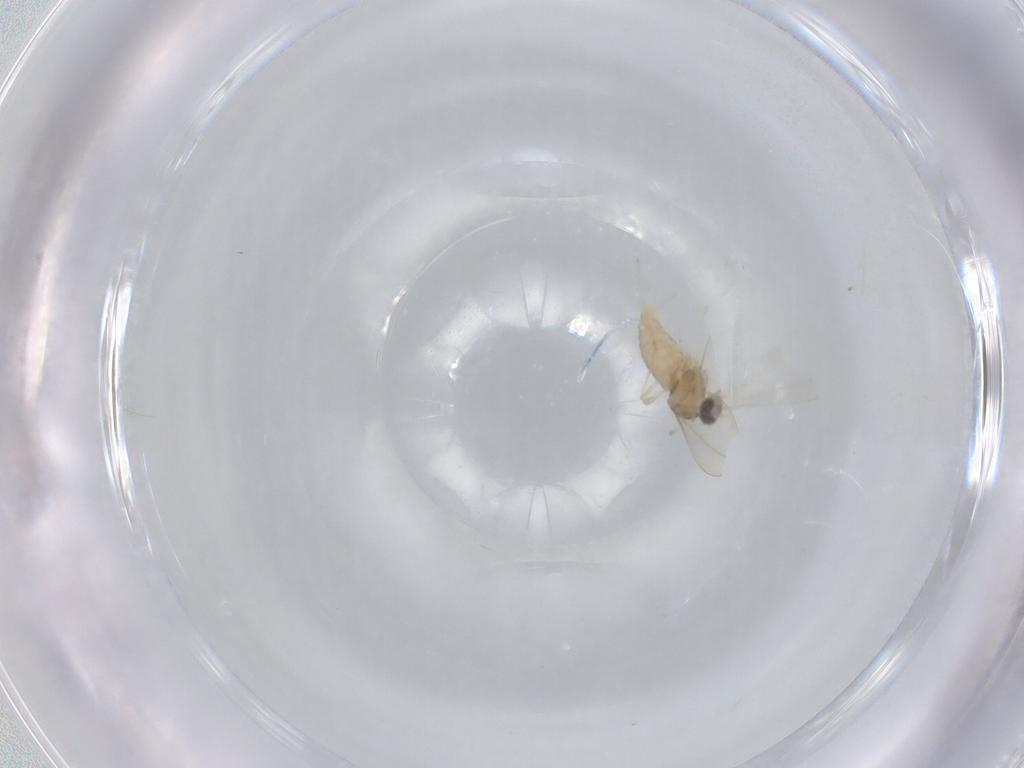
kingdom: Animalia
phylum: Arthropoda
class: Insecta
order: Diptera
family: Cecidomyiidae
